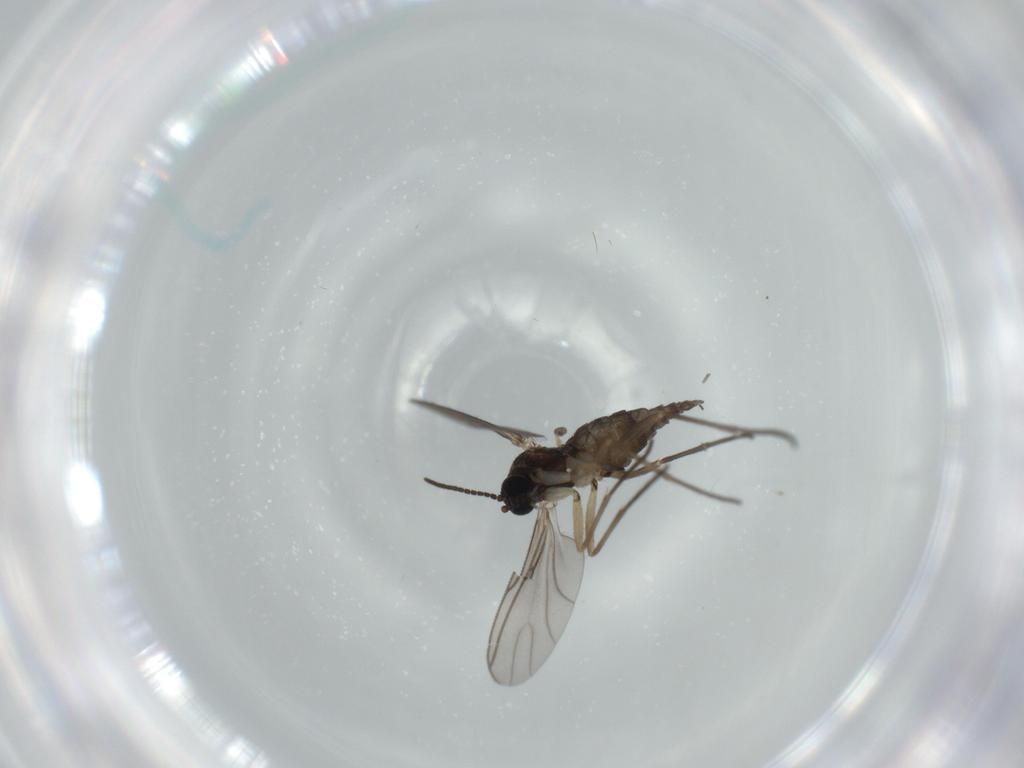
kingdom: Animalia
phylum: Arthropoda
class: Insecta
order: Diptera
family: Sciaridae
